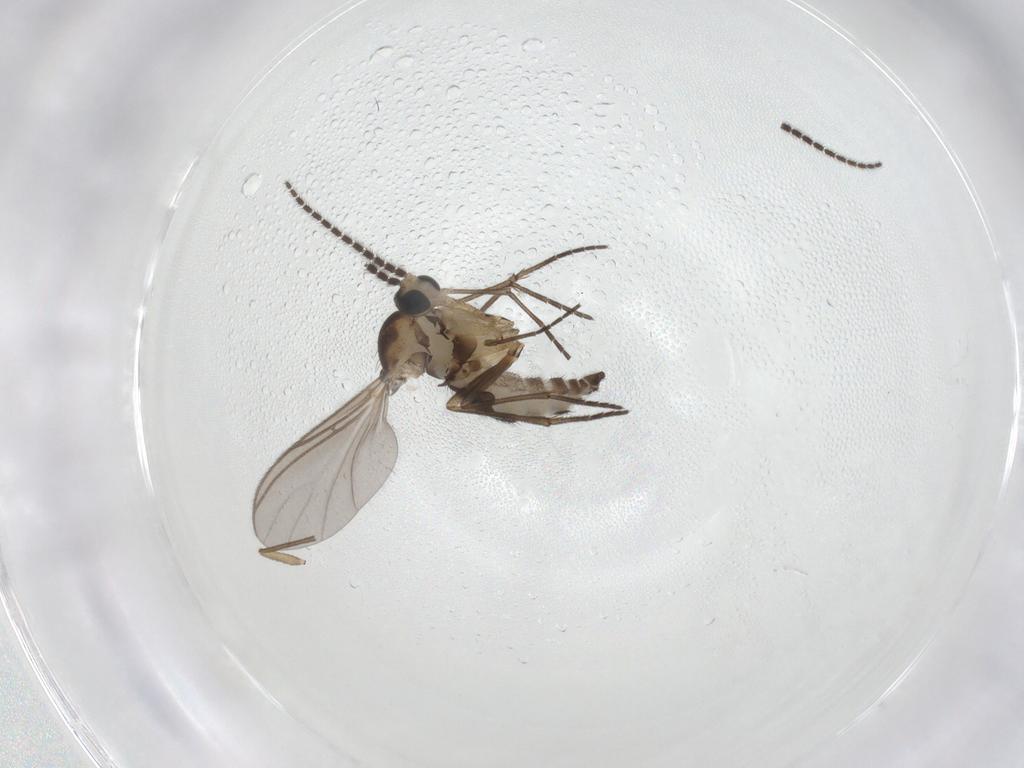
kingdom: Animalia
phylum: Arthropoda
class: Insecta
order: Diptera
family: Sciaridae
